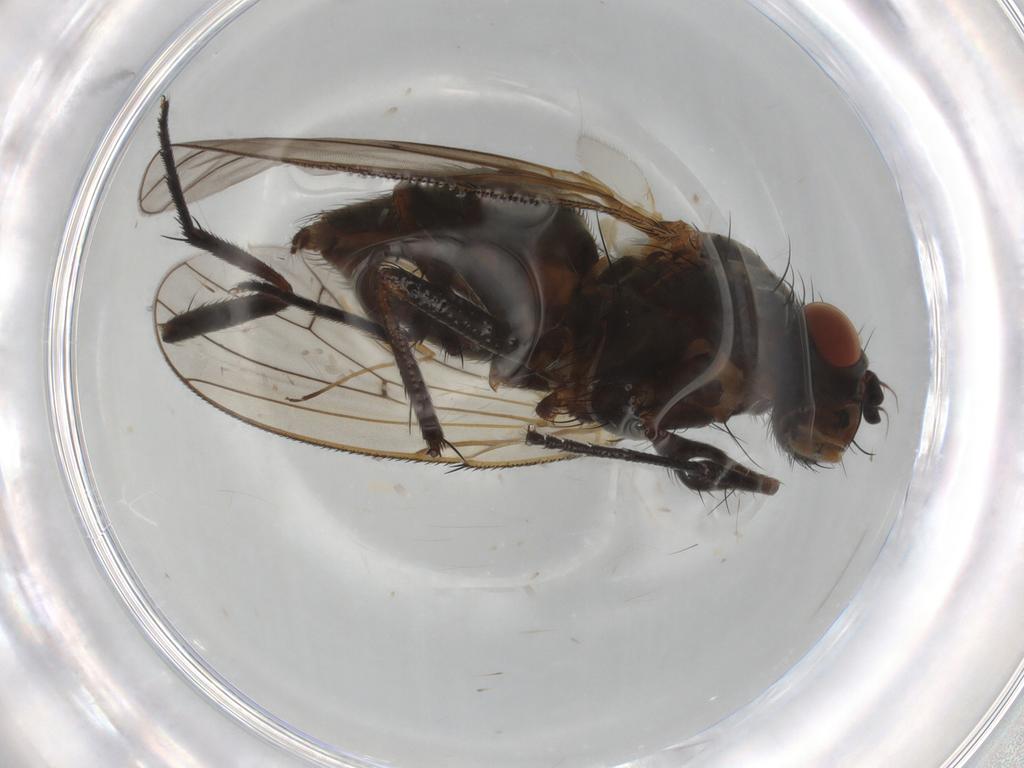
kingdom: Animalia
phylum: Arthropoda
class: Insecta
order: Diptera
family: Anthomyiidae
